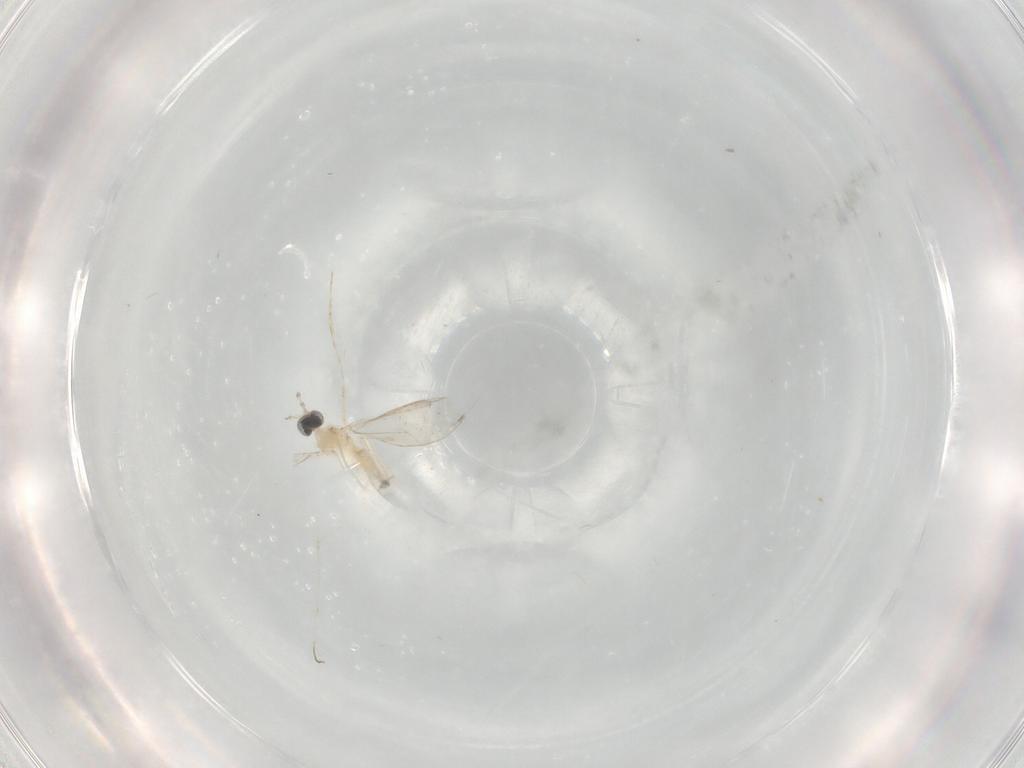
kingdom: Animalia
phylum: Arthropoda
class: Insecta
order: Diptera
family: Cecidomyiidae
